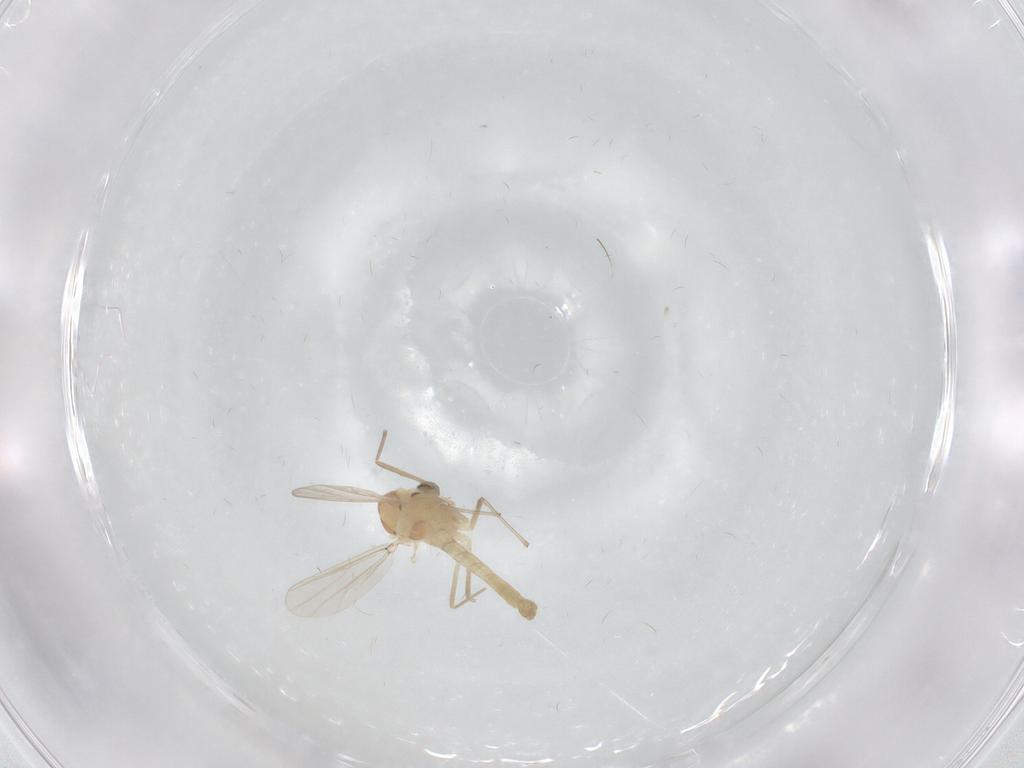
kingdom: Animalia
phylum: Arthropoda
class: Insecta
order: Diptera
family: Chironomidae
